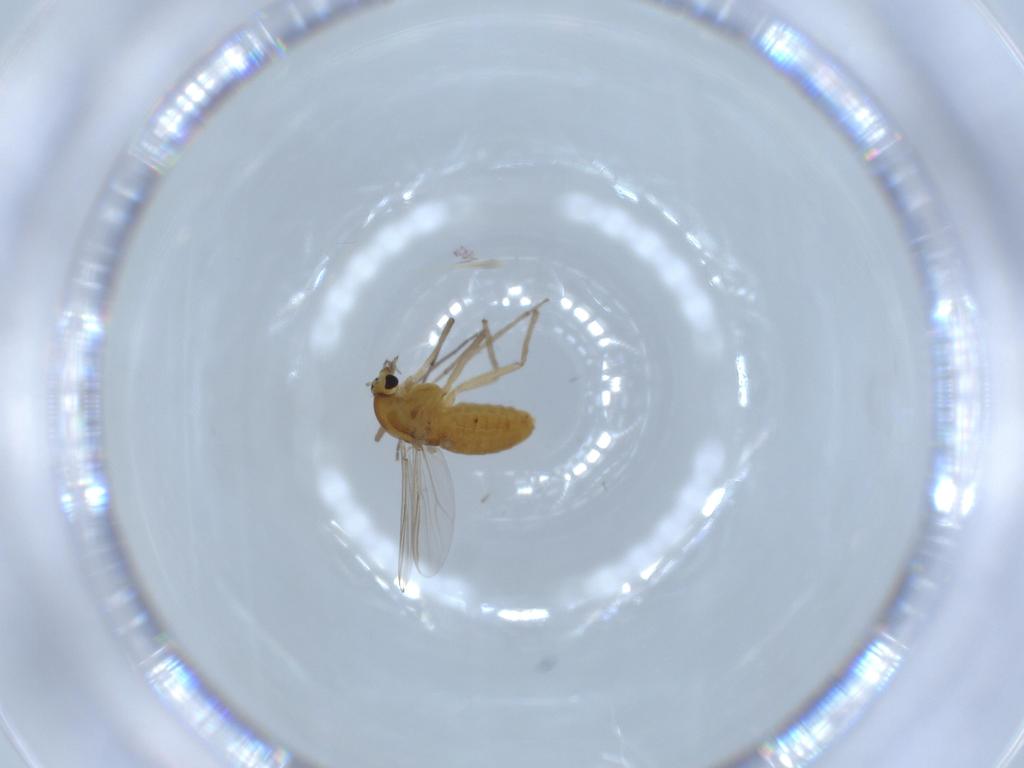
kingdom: Animalia
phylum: Arthropoda
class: Insecta
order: Diptera
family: Chironomidae
